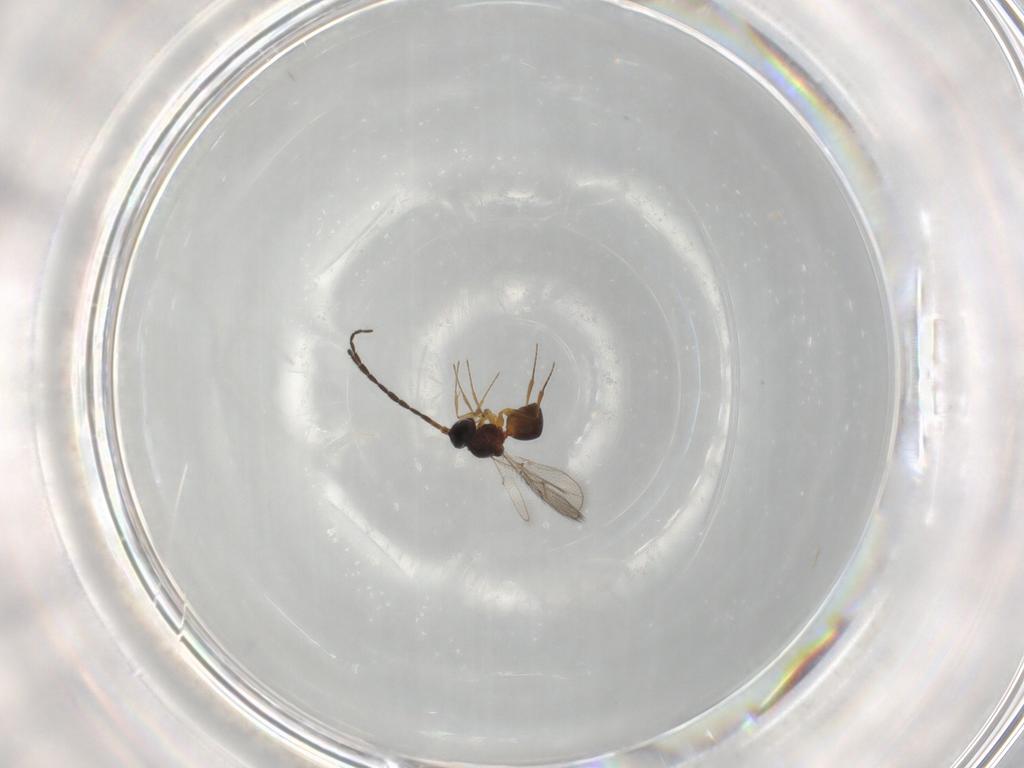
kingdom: Animalia
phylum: Arthropoda
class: Insecta
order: Hymenoptera
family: Figitidae
